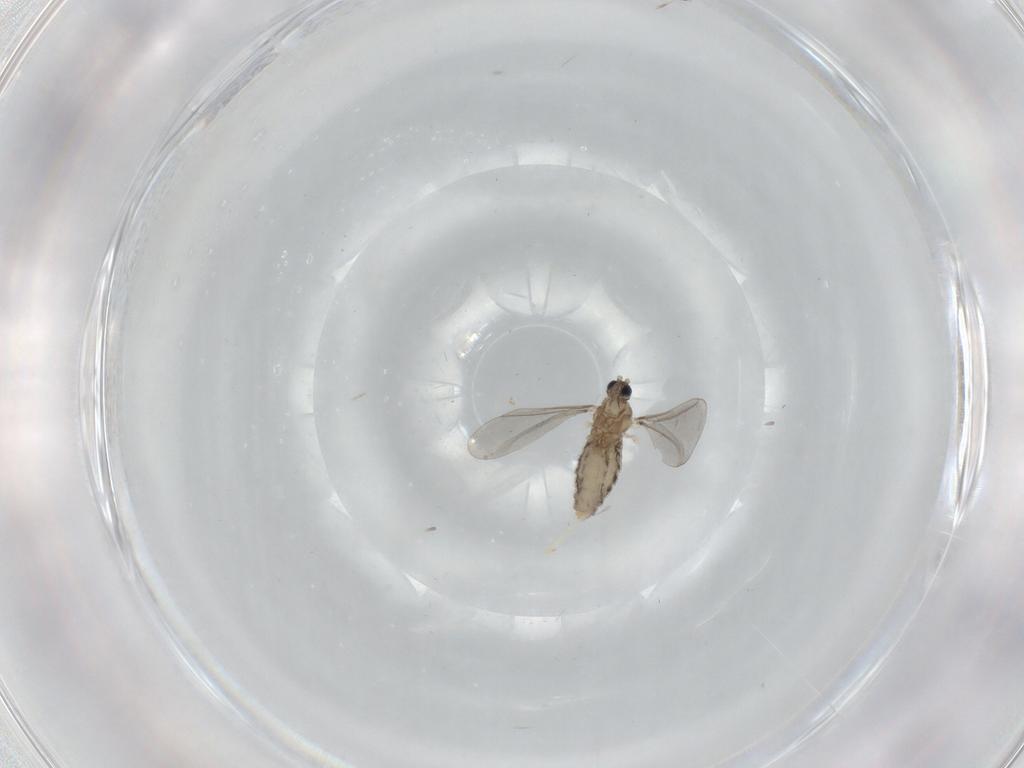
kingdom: Animalia
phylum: Arthropoda
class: Insecta
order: Diptera
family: Cecidomyiidae
